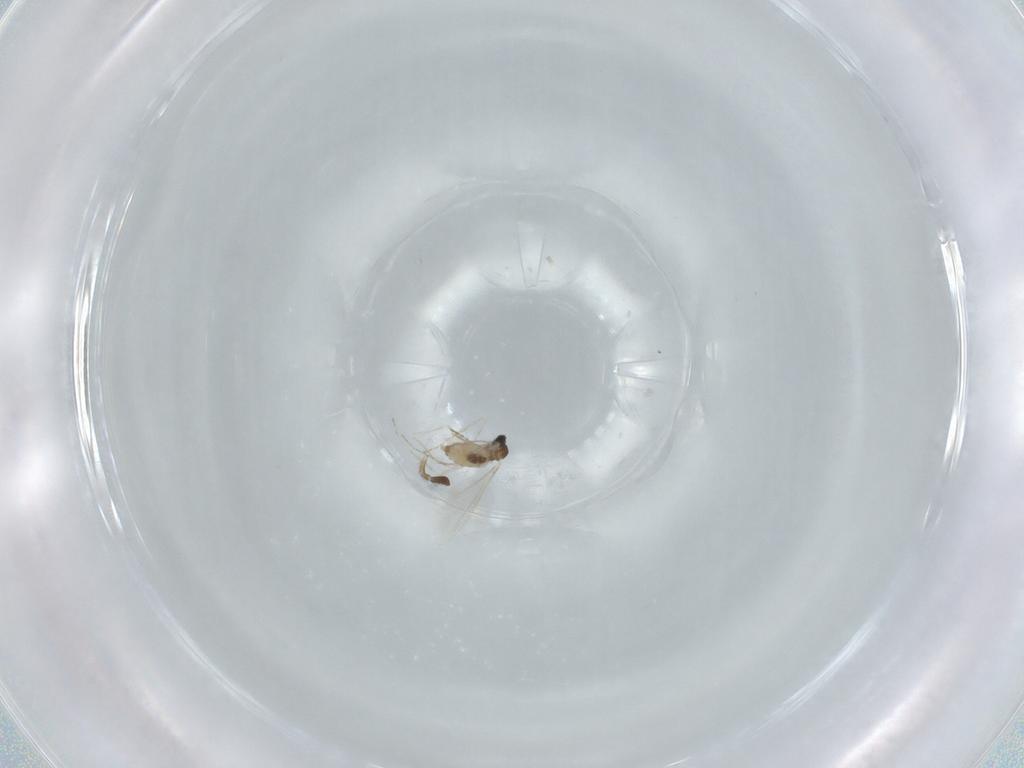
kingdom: Animalia
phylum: Arthropoda
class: Insecta
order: Diptera
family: Cecidomyiidae
